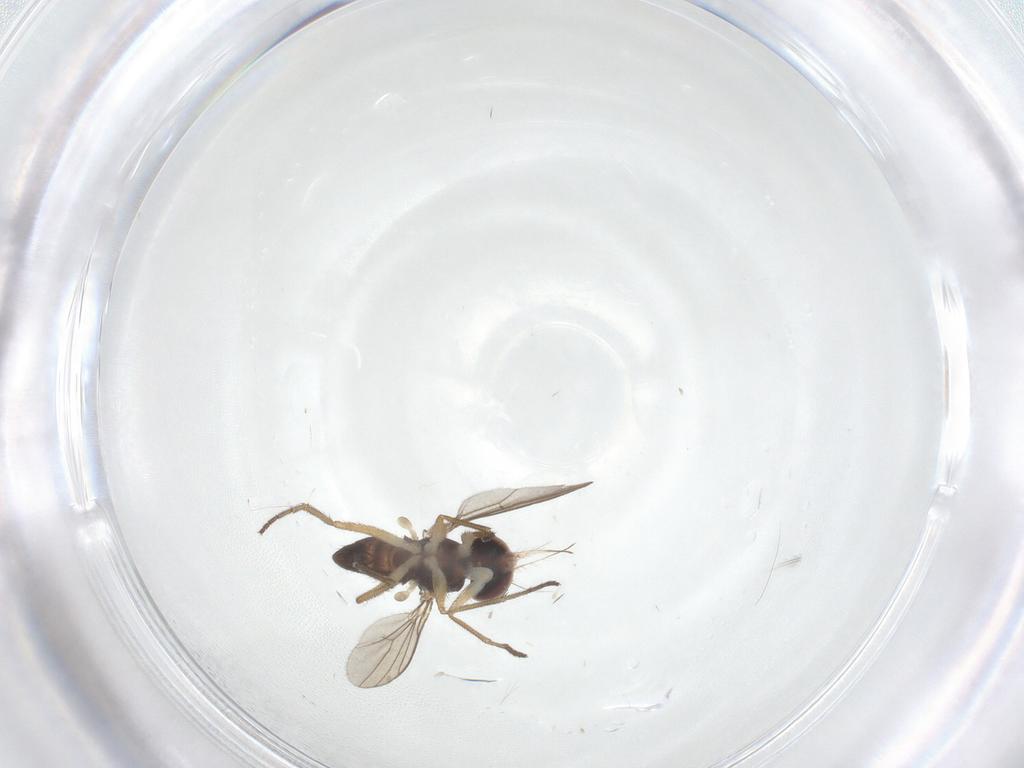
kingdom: Animalia
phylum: Arthropoda
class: Insecta
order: Diptera
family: Dolichopodidae
